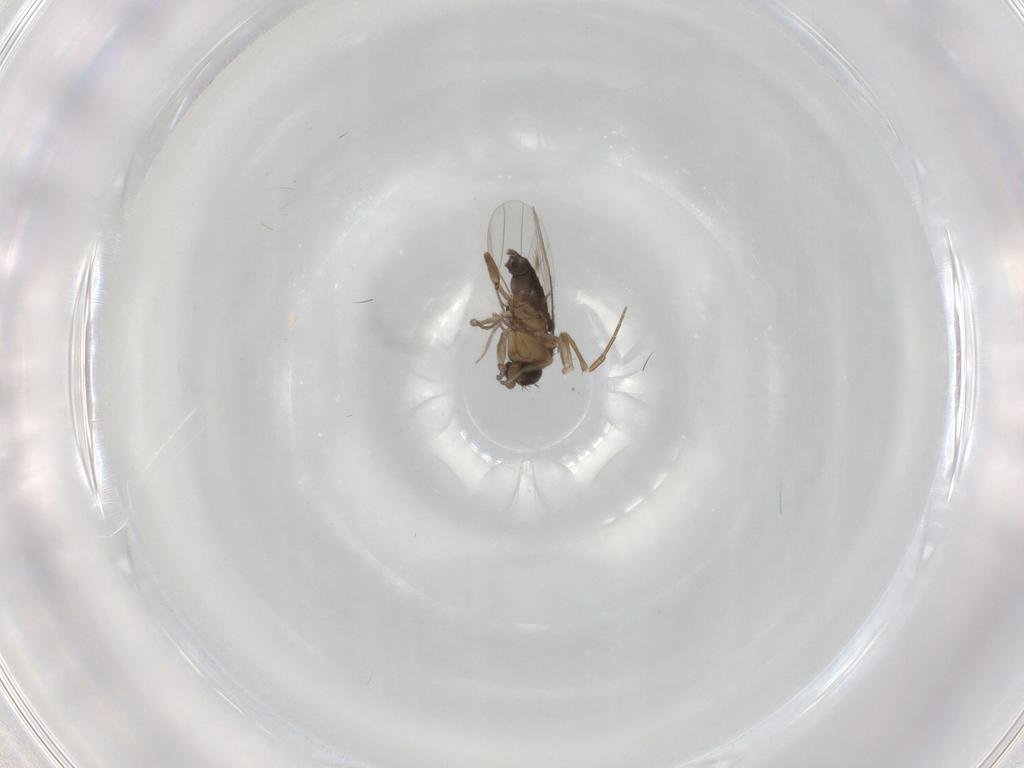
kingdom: Animalia
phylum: Arthropoda
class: Insecta
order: Diptera
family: Phoridae
